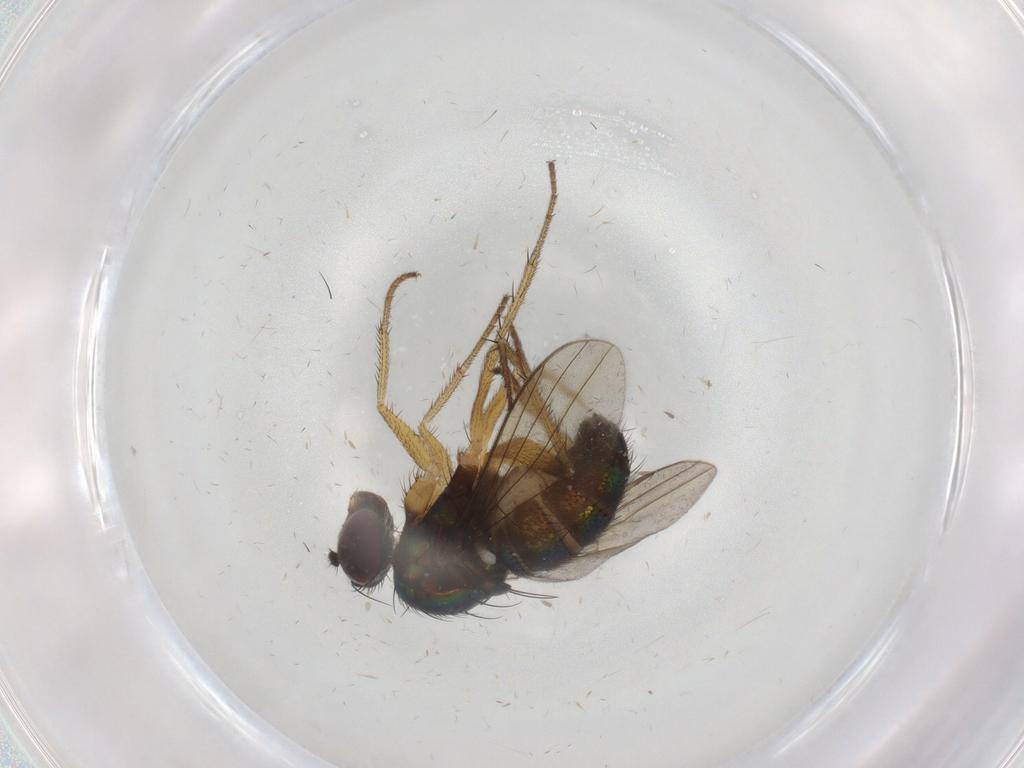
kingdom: Animalia
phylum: Arthropoda
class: Insecta
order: Diptera
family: Dolichopodidae
